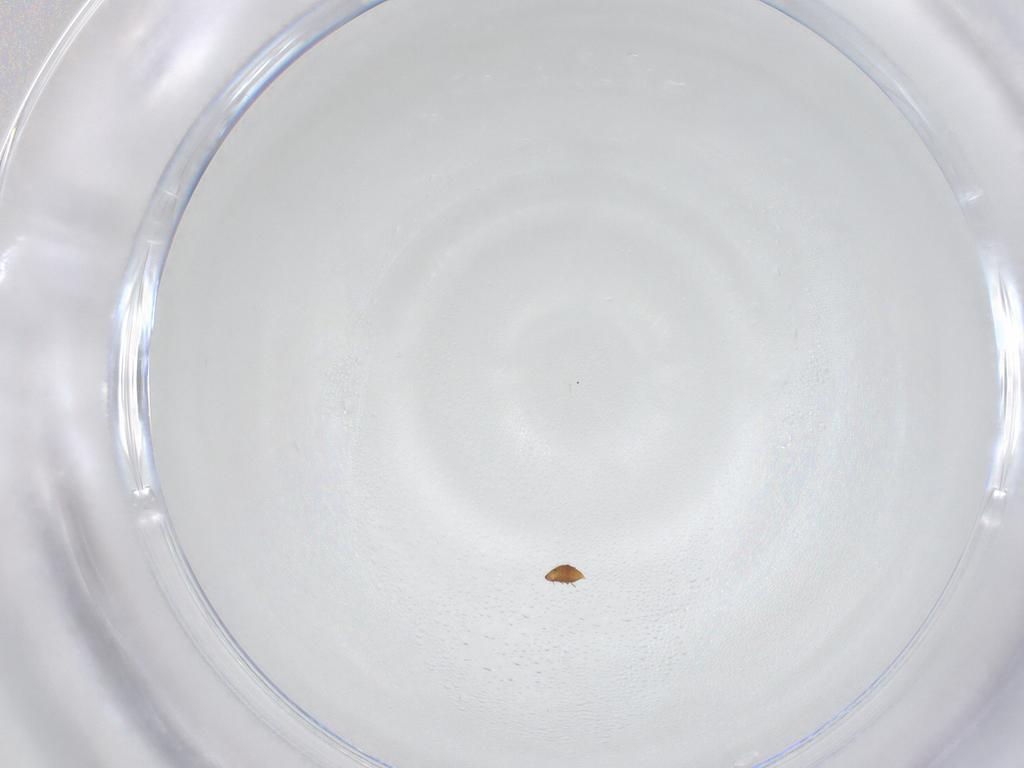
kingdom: Animalia
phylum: Arthropoda
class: Insecta
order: Coleoptera
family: Ripiphoridae
